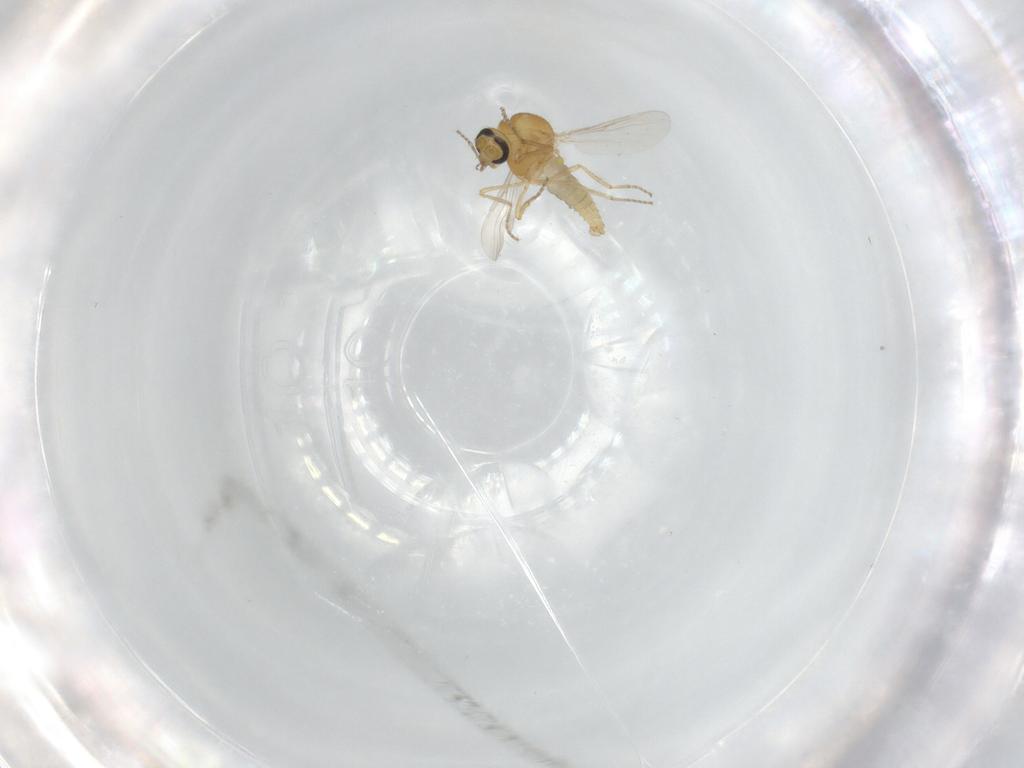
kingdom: Animalia
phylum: Arthropoda
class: Insecta
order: Diptera
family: Ceratopogonidae
